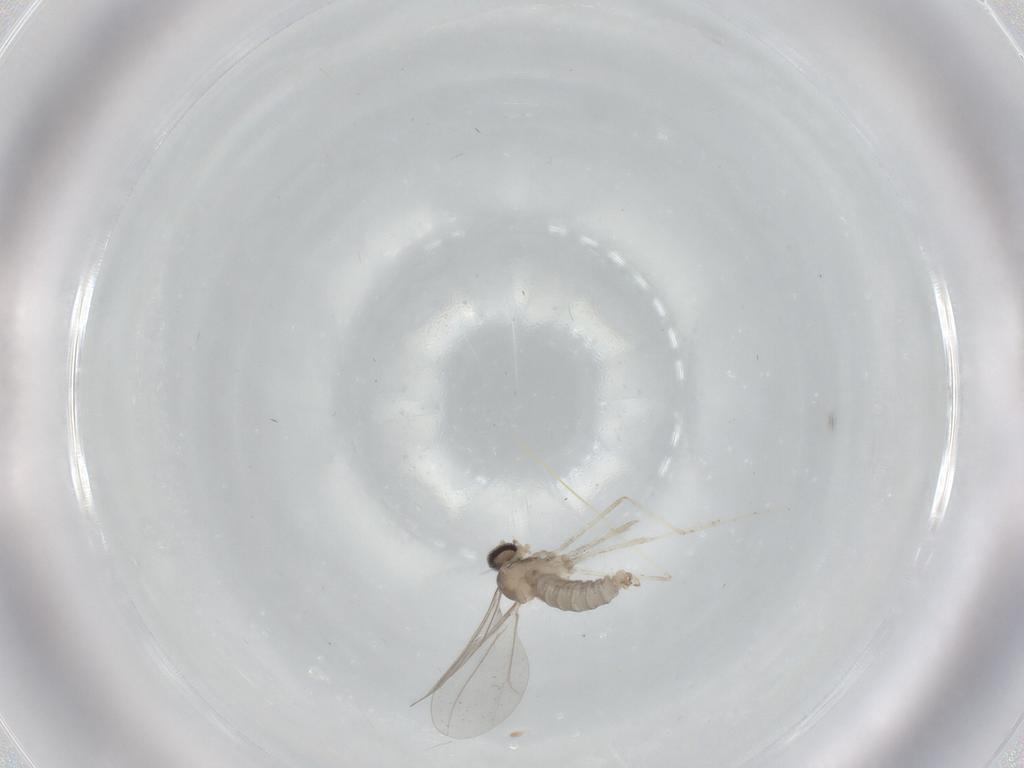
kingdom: Animalia
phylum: Arthropoda
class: Insecta
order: Diptera
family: Cecidomyiidae
